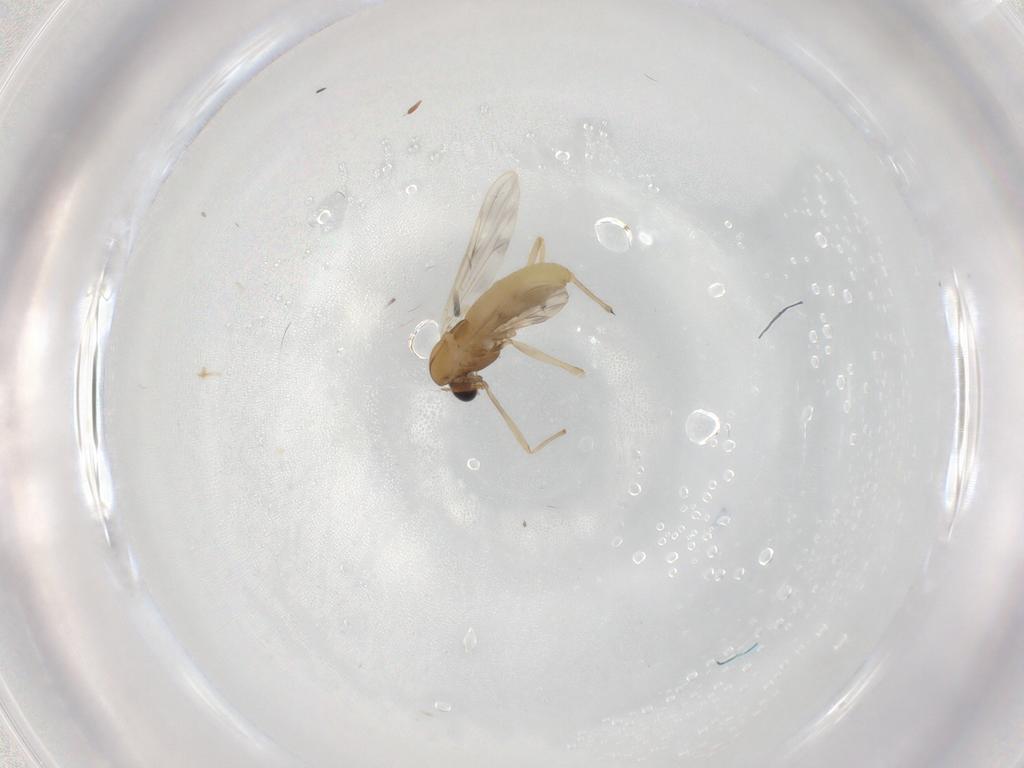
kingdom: Animalia
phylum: Arthropoda
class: Insecta
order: Diptera
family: Chironomidae
